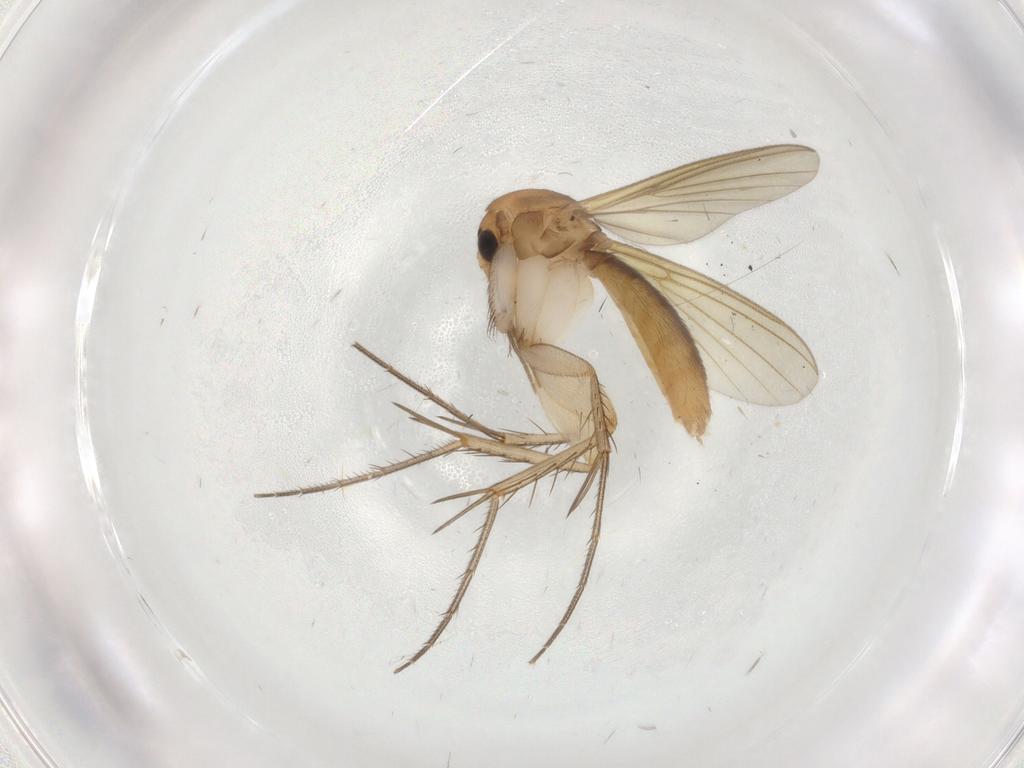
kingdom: Animalia
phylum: Arthropoda
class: Insecta
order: Diptera
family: Mycetophilidae
